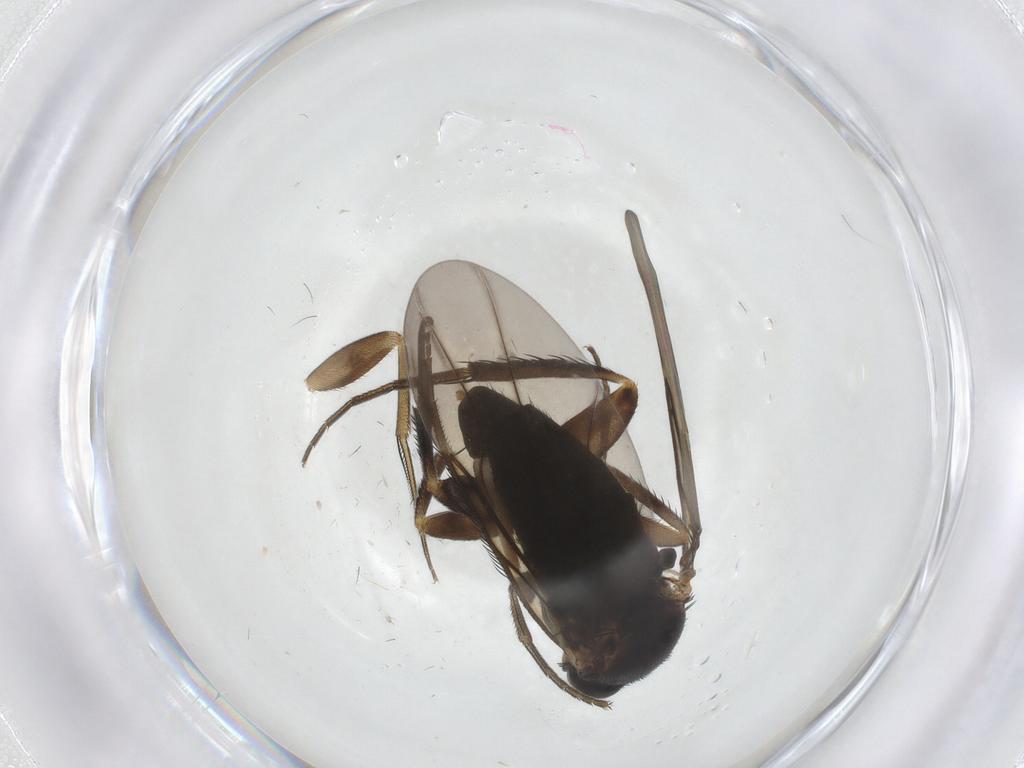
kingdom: Animalia
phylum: Arthropoda
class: Insecta
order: Diptera
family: Phoridae
